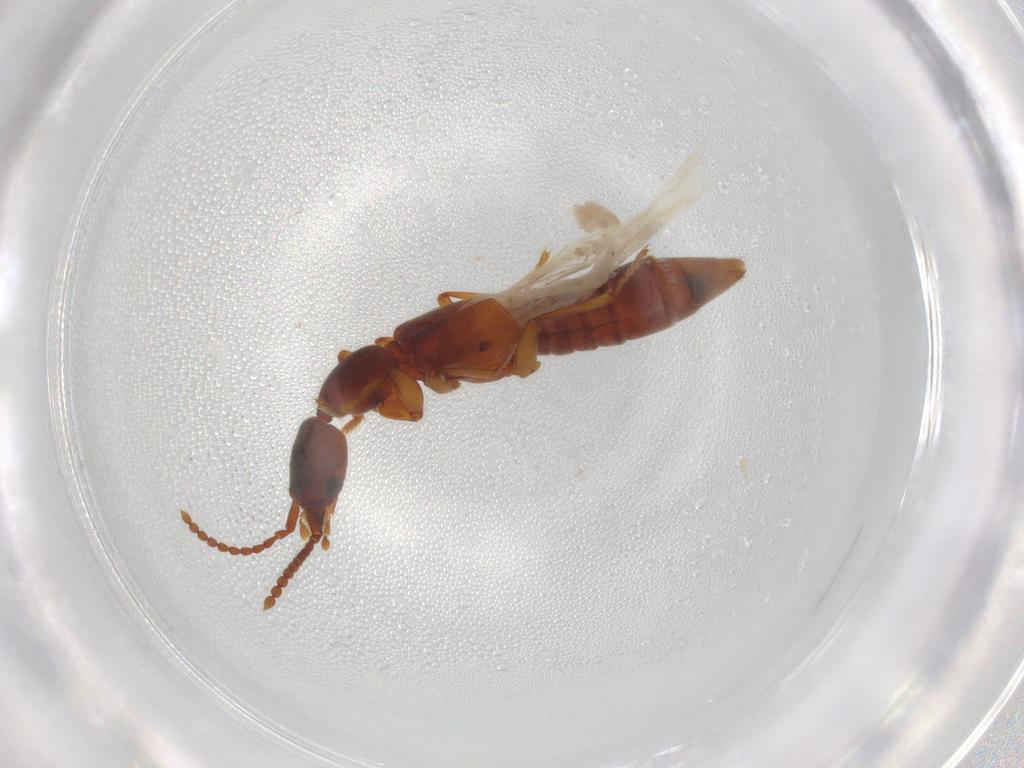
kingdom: Animalia
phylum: Arthropoda
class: Insecta
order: Coleoptera
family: Staphylinidae
